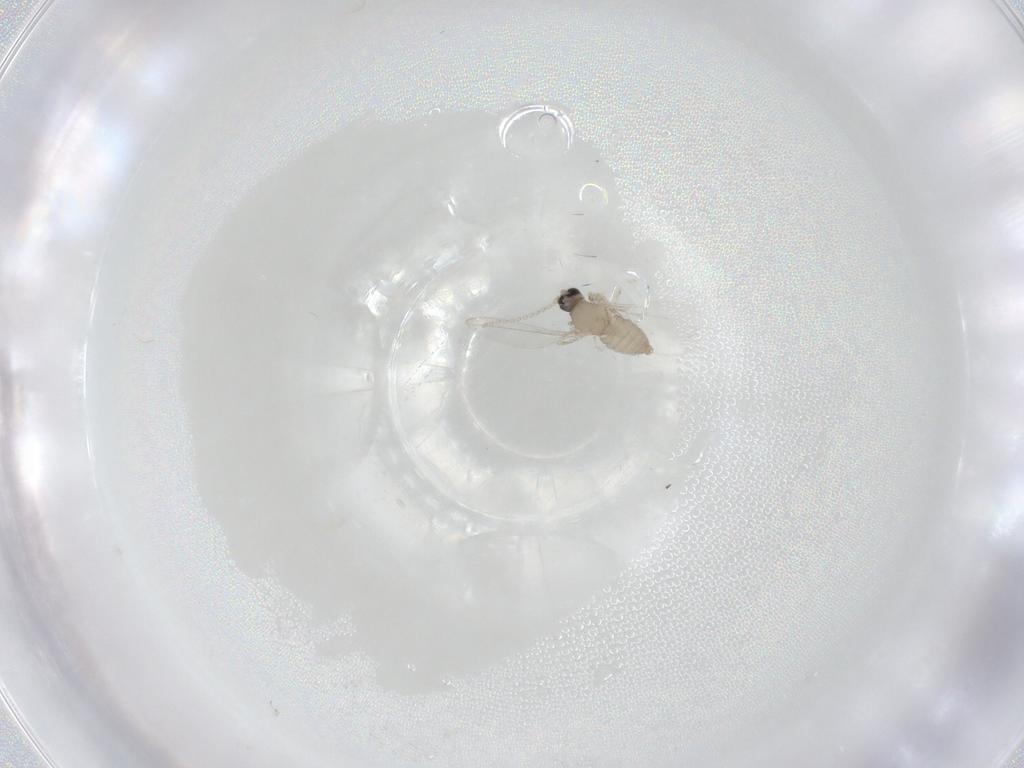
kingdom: Animalia
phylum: Arthropoda
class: Insecta
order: Diptera
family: Cecidomyiidae
